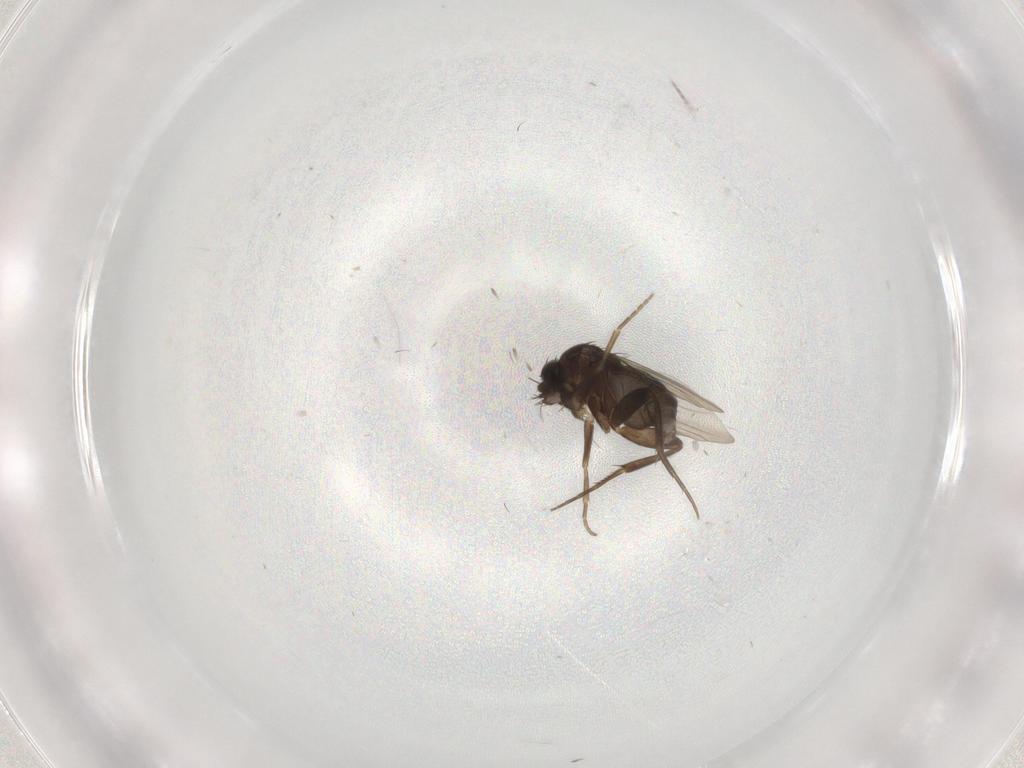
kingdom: Animalia
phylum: Arthropoda
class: Insecta
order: Diptera
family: Phoridae
